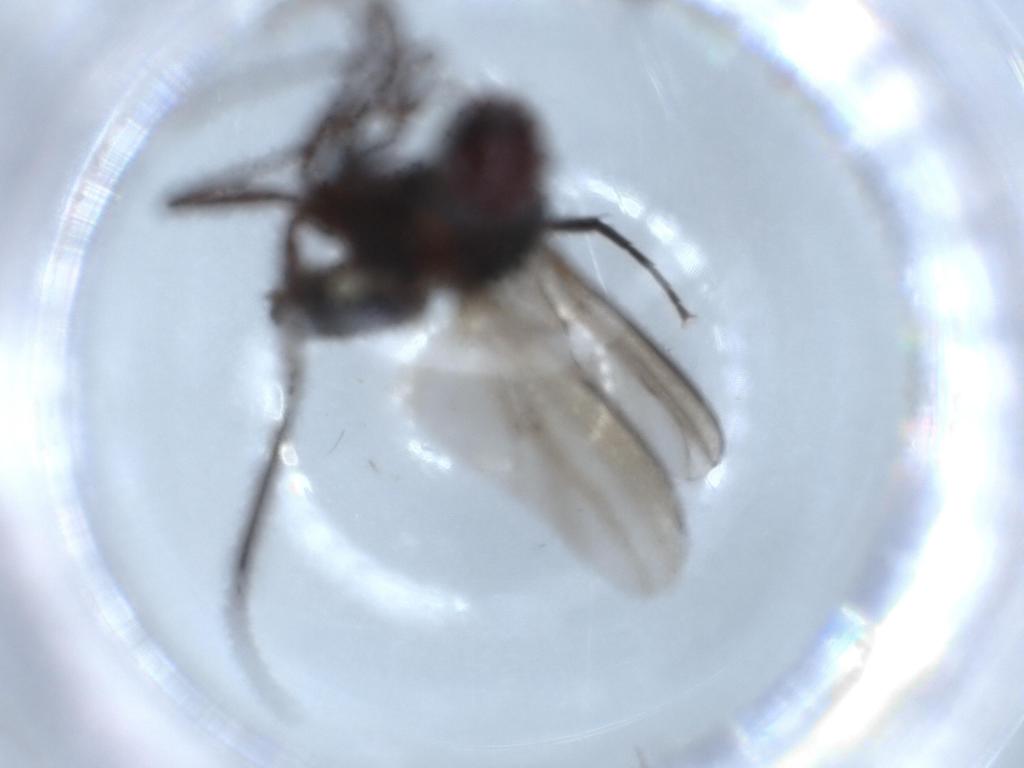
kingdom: Animalia
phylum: Arthropoda
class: Insecta
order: Diptera
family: Dolichopodidae
